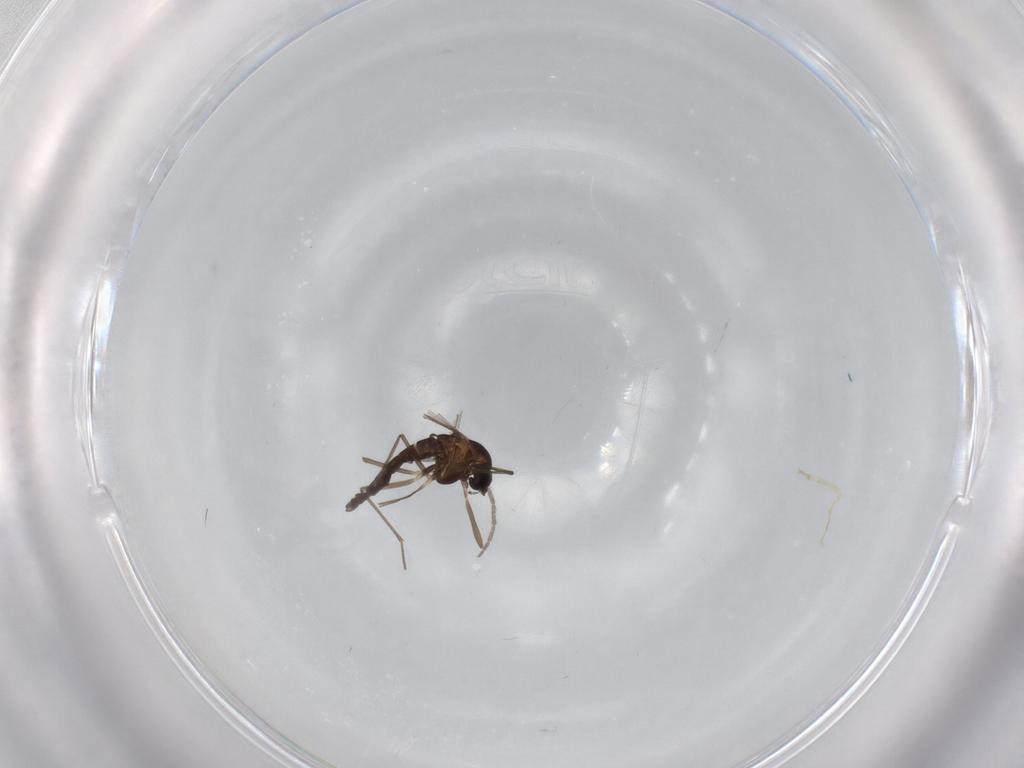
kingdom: Animalia
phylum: Arthropoda
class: Insecta
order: Diptera
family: Chironomidae
